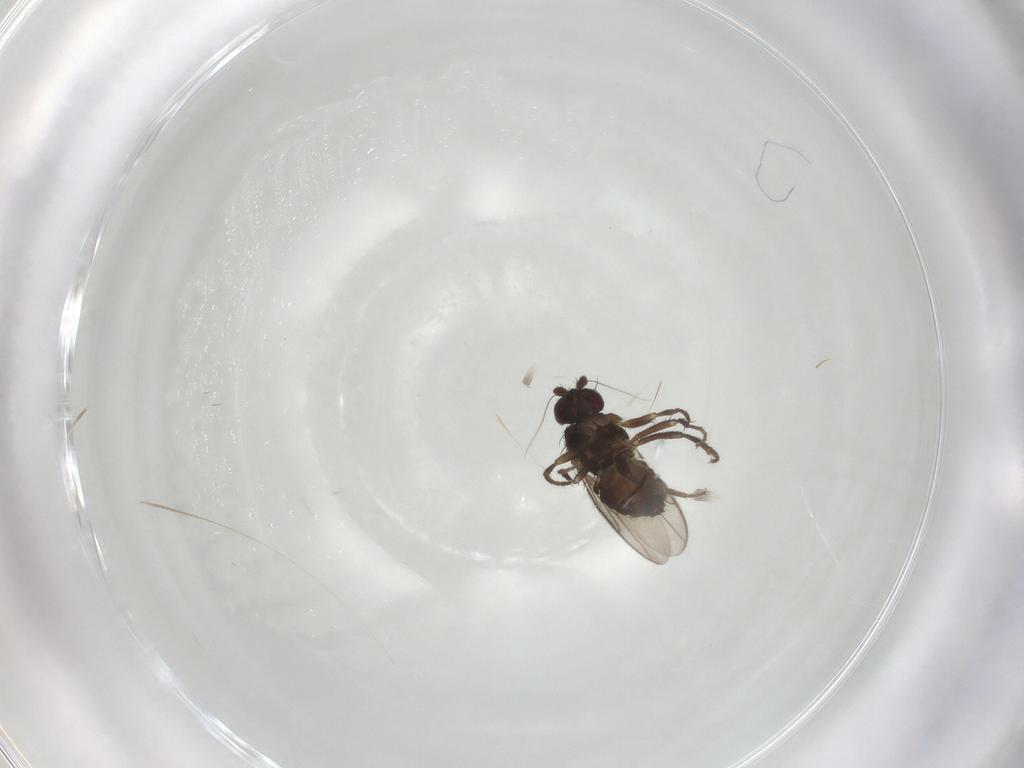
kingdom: Animalia
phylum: Arthropoda
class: Insecta
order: Diptera
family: Sphaeroceridae
